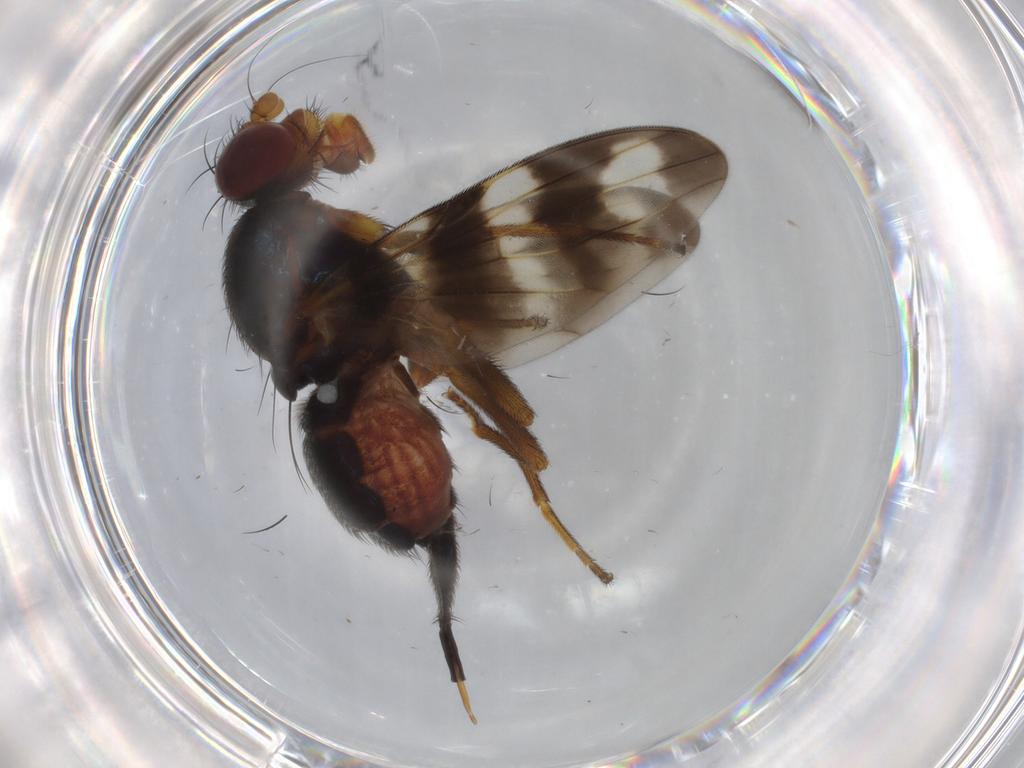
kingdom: Animalia
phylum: Arthropoda
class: Insecta
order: Diptera
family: Ulidiidae
